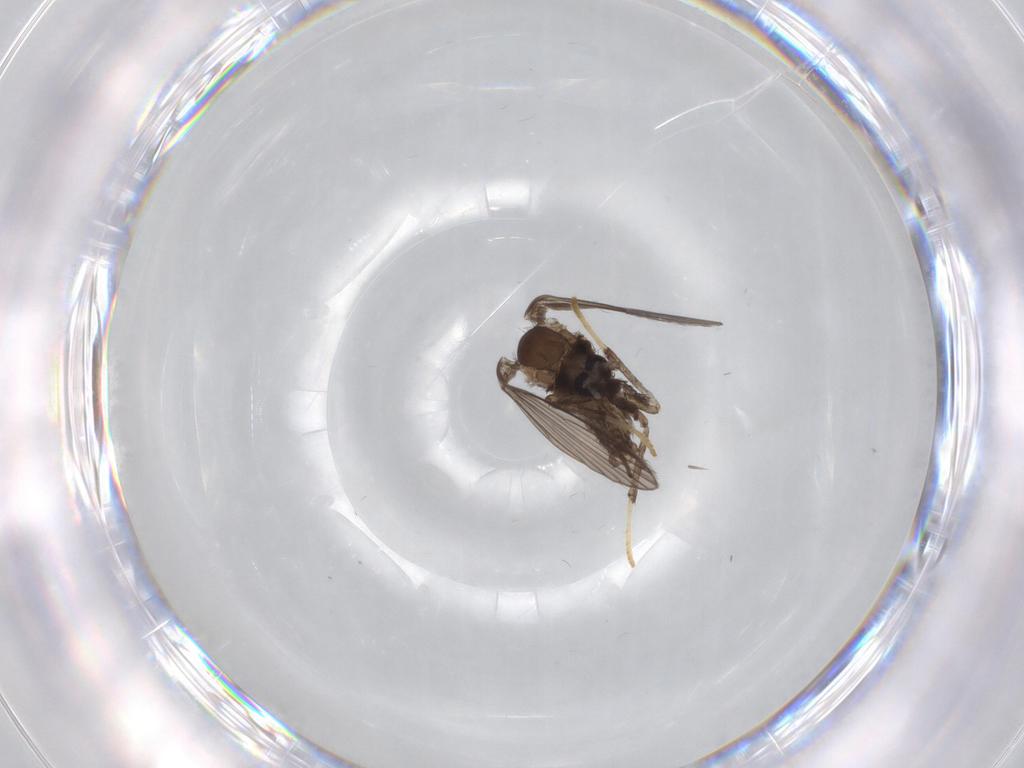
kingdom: Animalia
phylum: Arthropoda
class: Insecta
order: Diptera
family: Psychodidae
